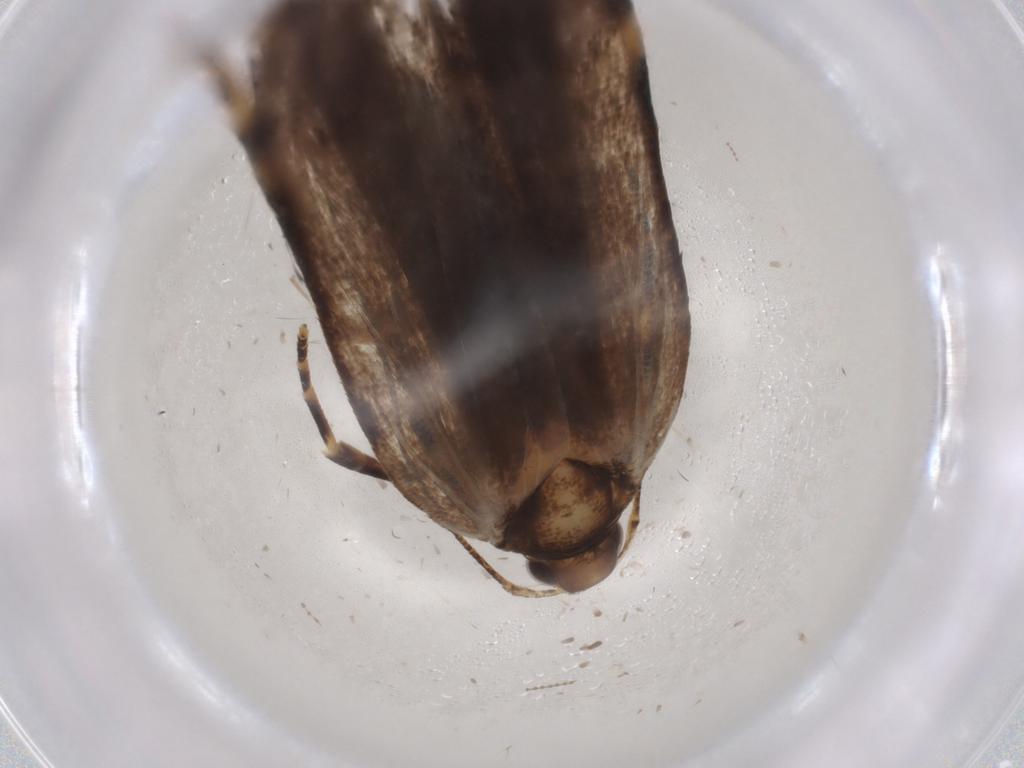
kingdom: Animalia
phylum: Arthropoda
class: Insecta
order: Lepidoptera
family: Gelechiidae
